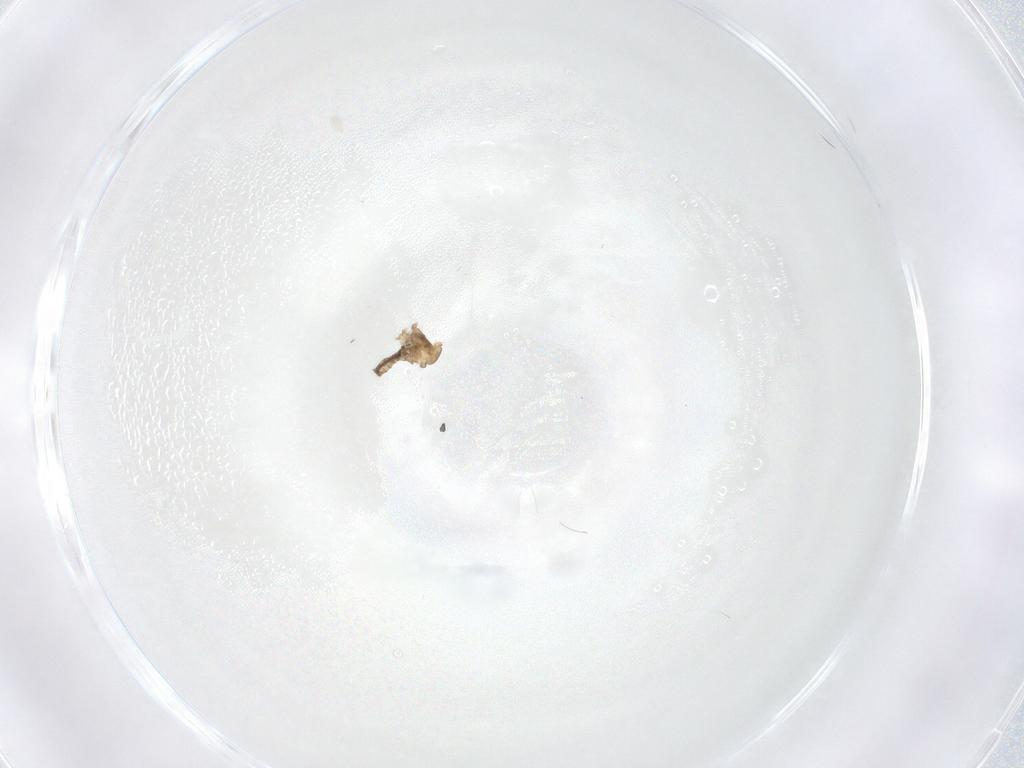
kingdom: Animalia
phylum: Arthropoda
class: Insecta
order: Diptera
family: Cecidomyiidae
